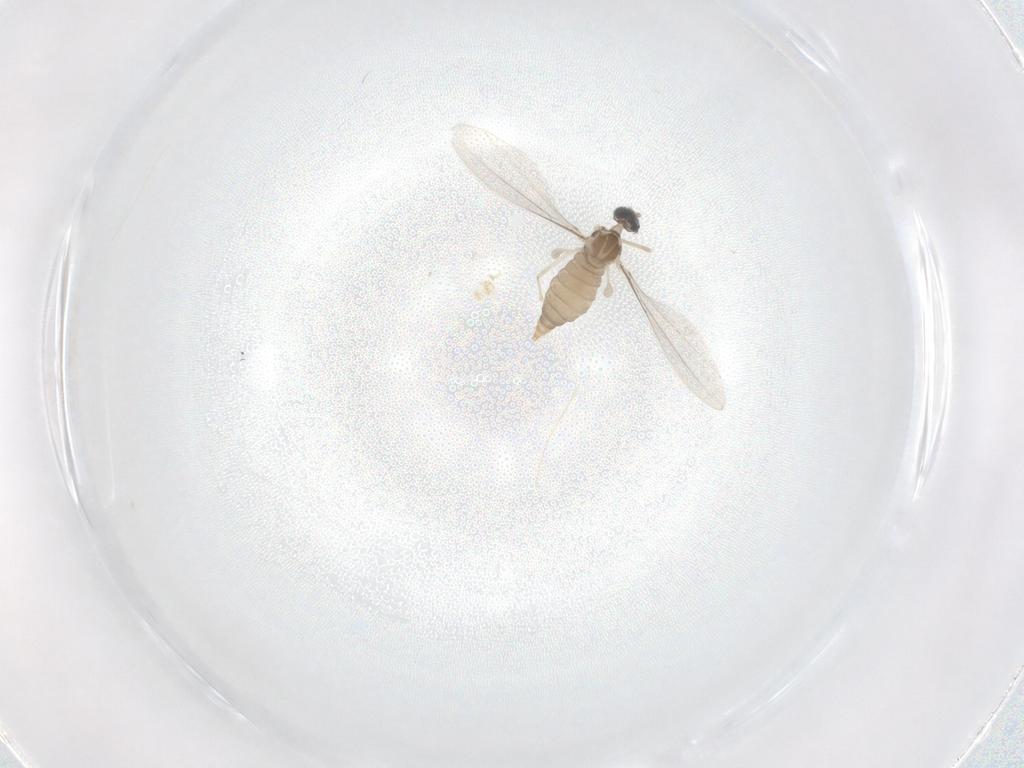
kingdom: Animalia
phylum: Arthropoda
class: Insecta
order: Diptera
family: Cecidomyiidae
